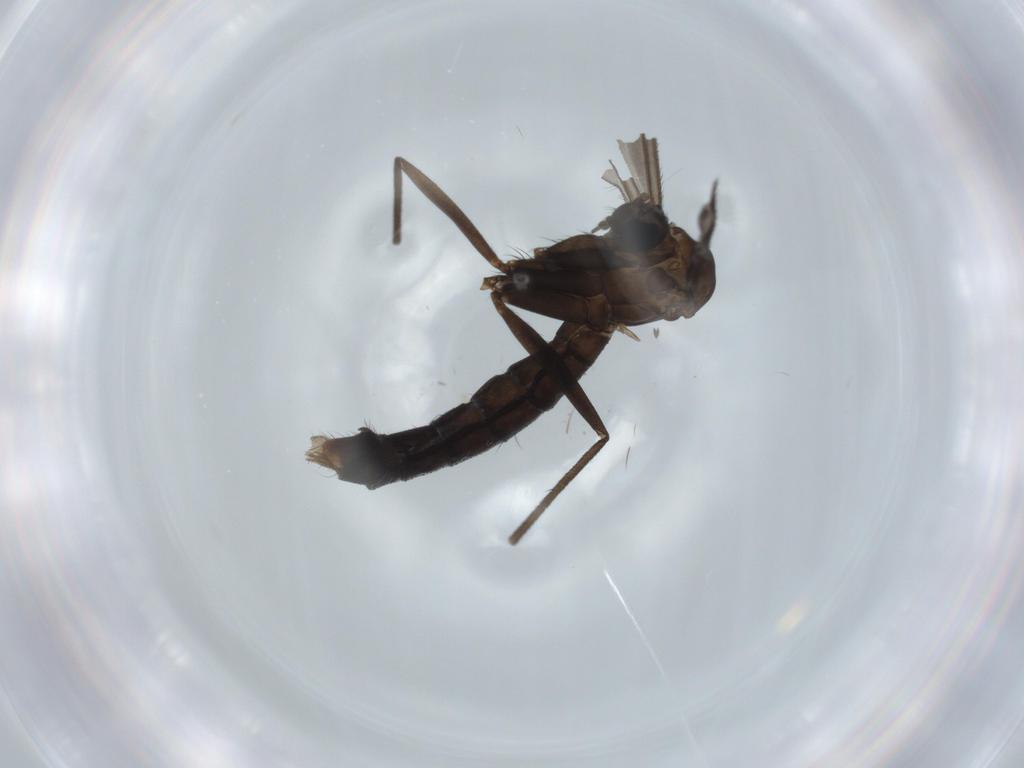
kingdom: Animalia
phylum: Arthropoda
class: Insecta
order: Diptera
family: Ditomyiidae
